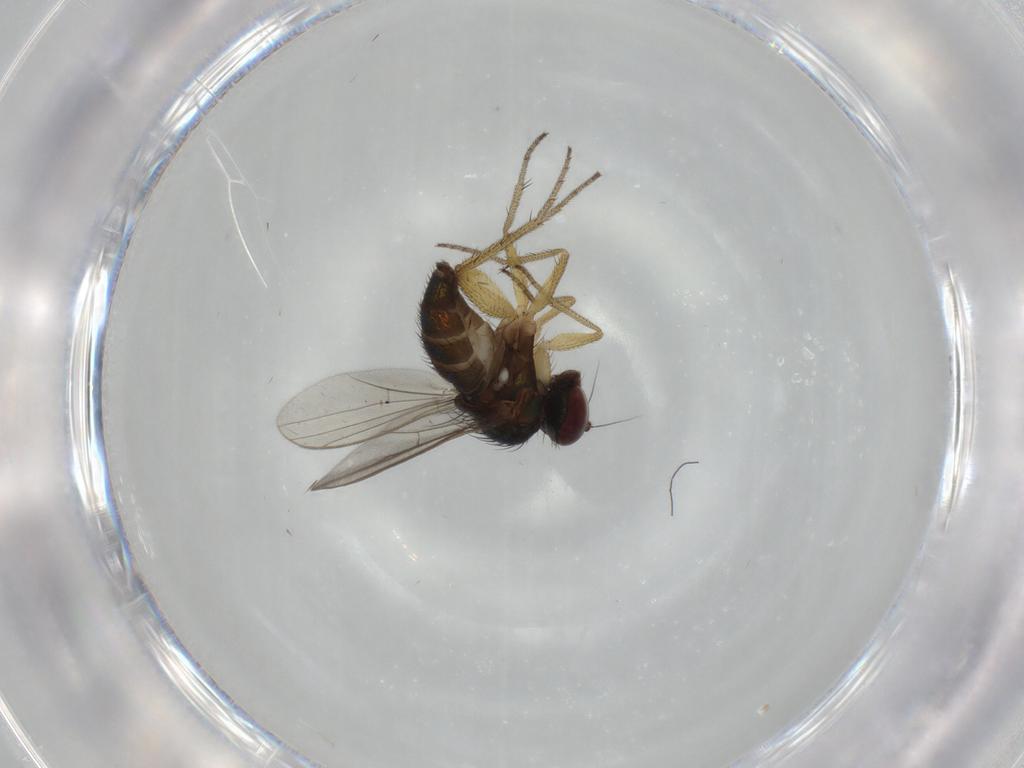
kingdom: Animalia
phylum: Arthropoda
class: Insecta
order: Diptera
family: Dolichopodidae
